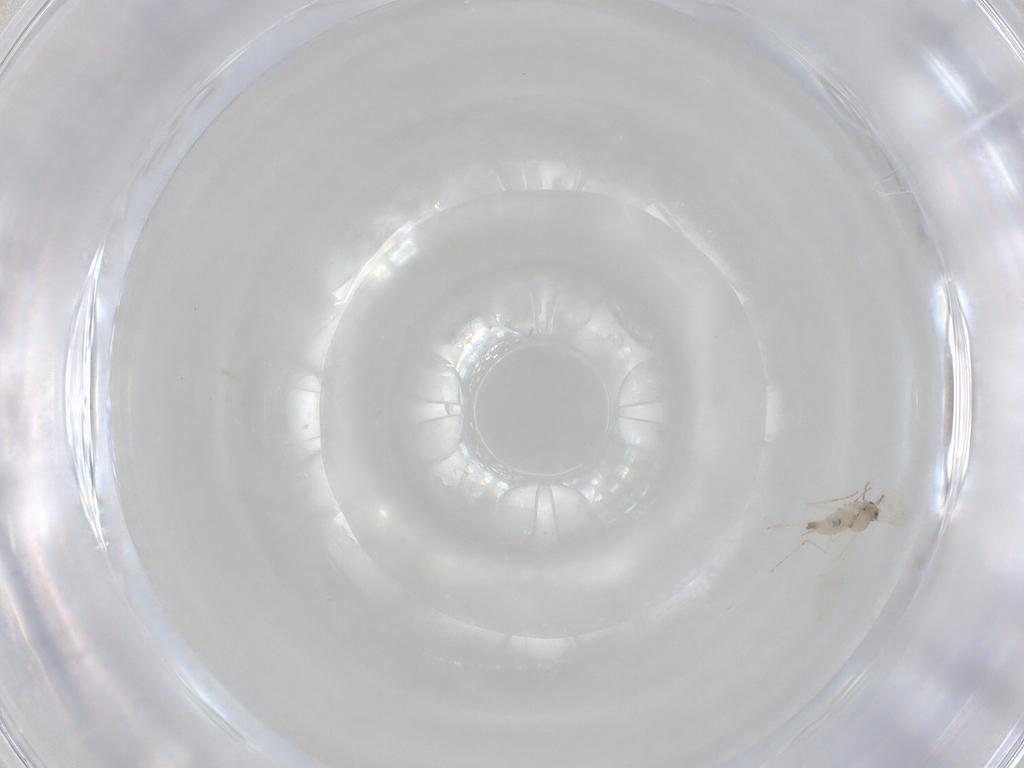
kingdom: Animalia
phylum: Arthropoda
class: Insecta
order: Diptera
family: Cecidomyiidae
